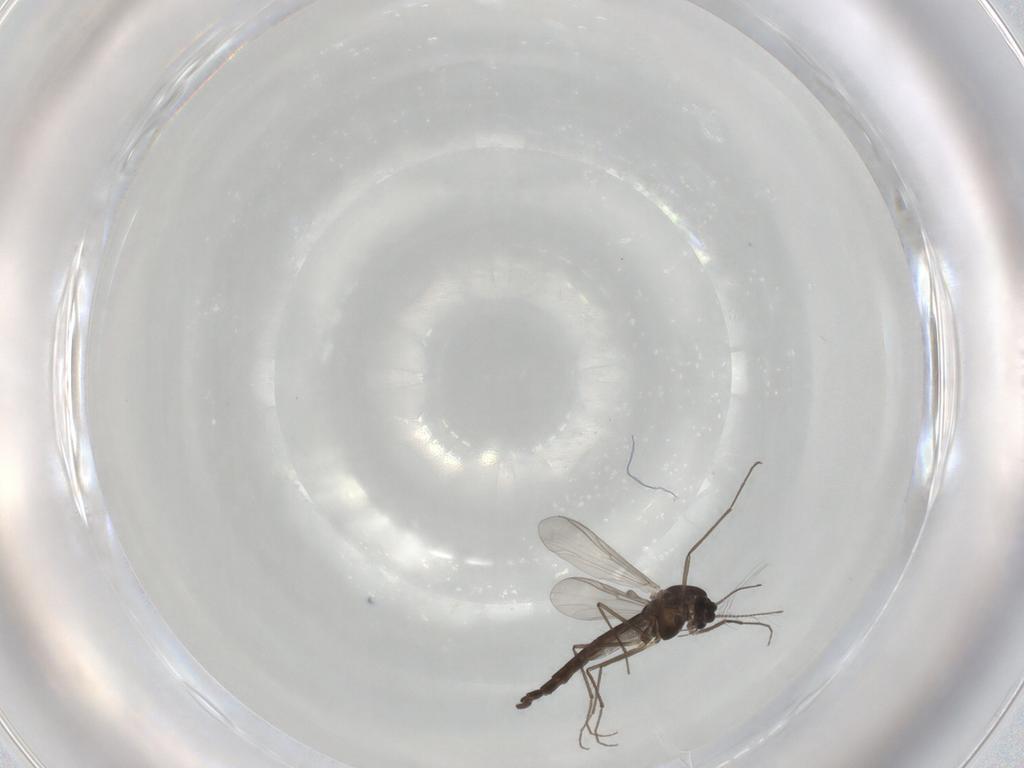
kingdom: Animalia
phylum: Arthropoda
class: Insecta
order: Diptera
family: Chironomidae
